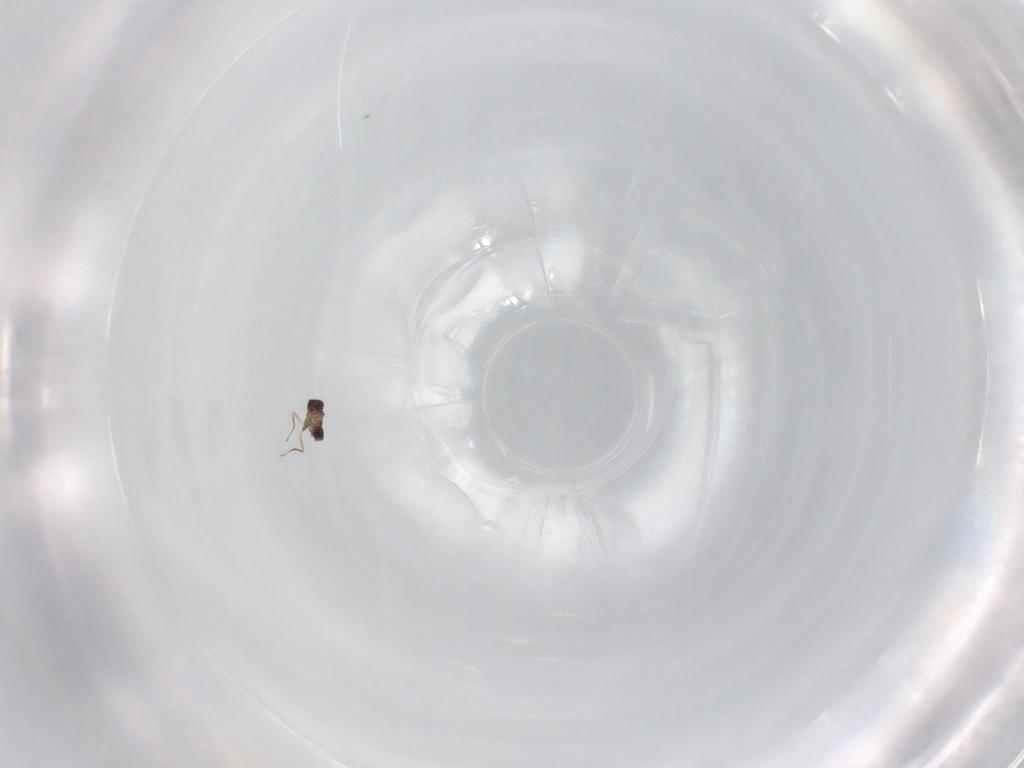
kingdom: Animalia
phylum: Arthropoda
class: Insecta
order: Hymenoptera
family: Mymaridae
